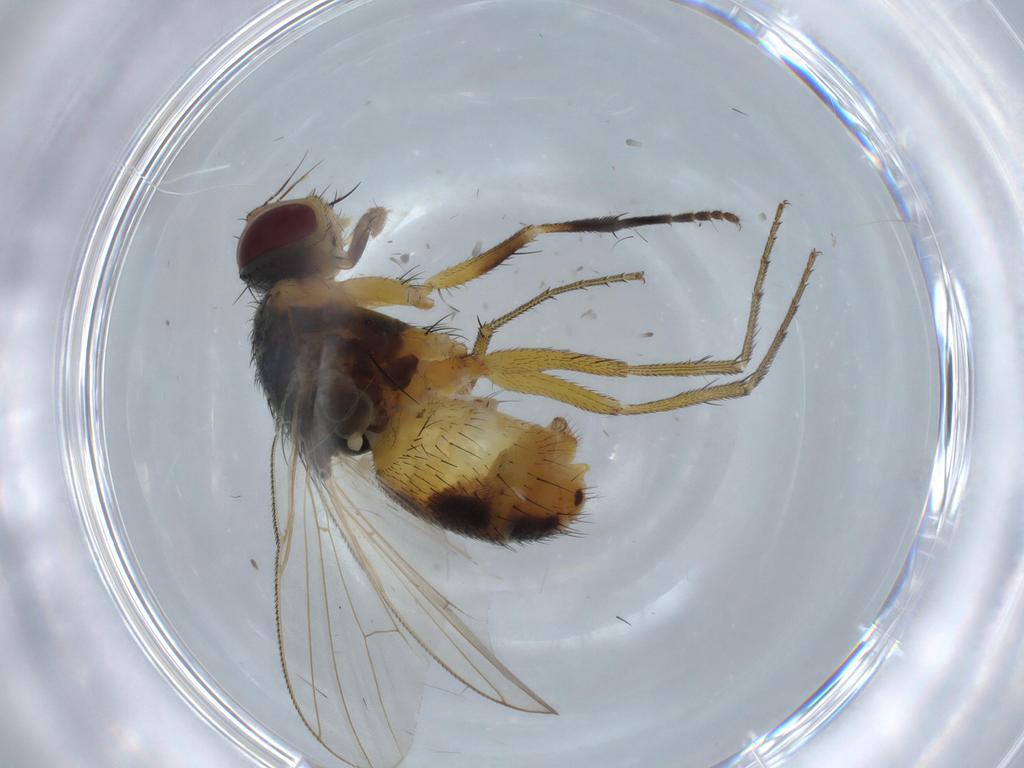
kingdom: Animalia
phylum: Arthropoda
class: Insecta
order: Diptera
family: Muscidae
